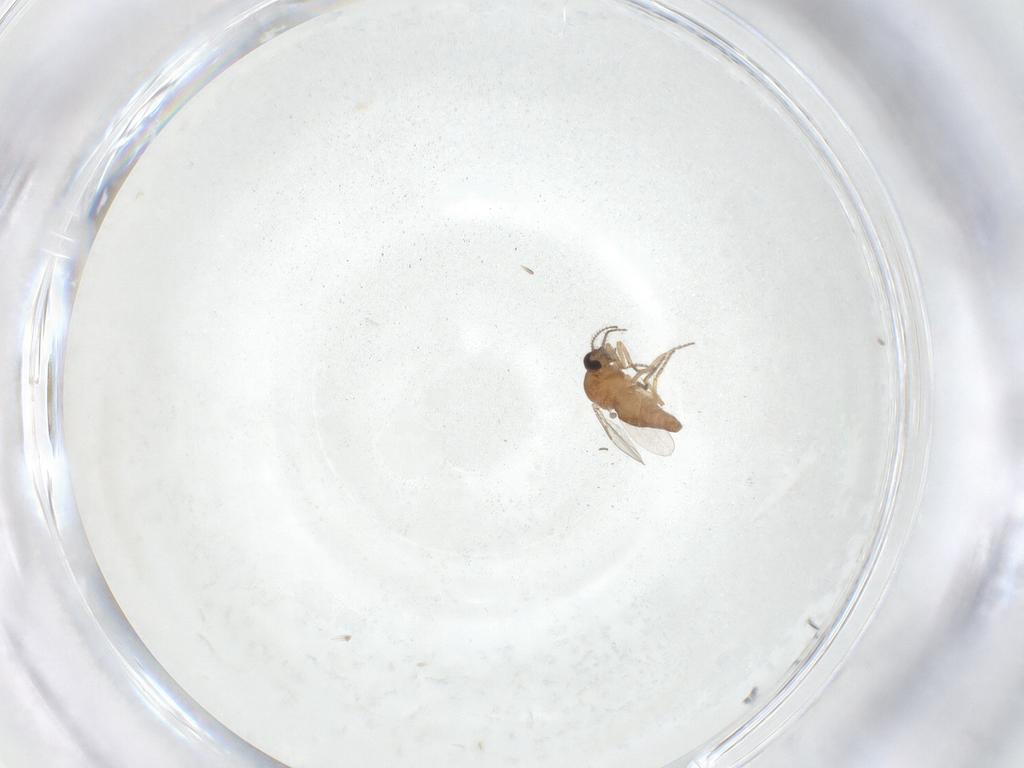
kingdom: Animalia
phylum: Arthropoda
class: Insecta
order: Diptera
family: Ceratopogonidae
